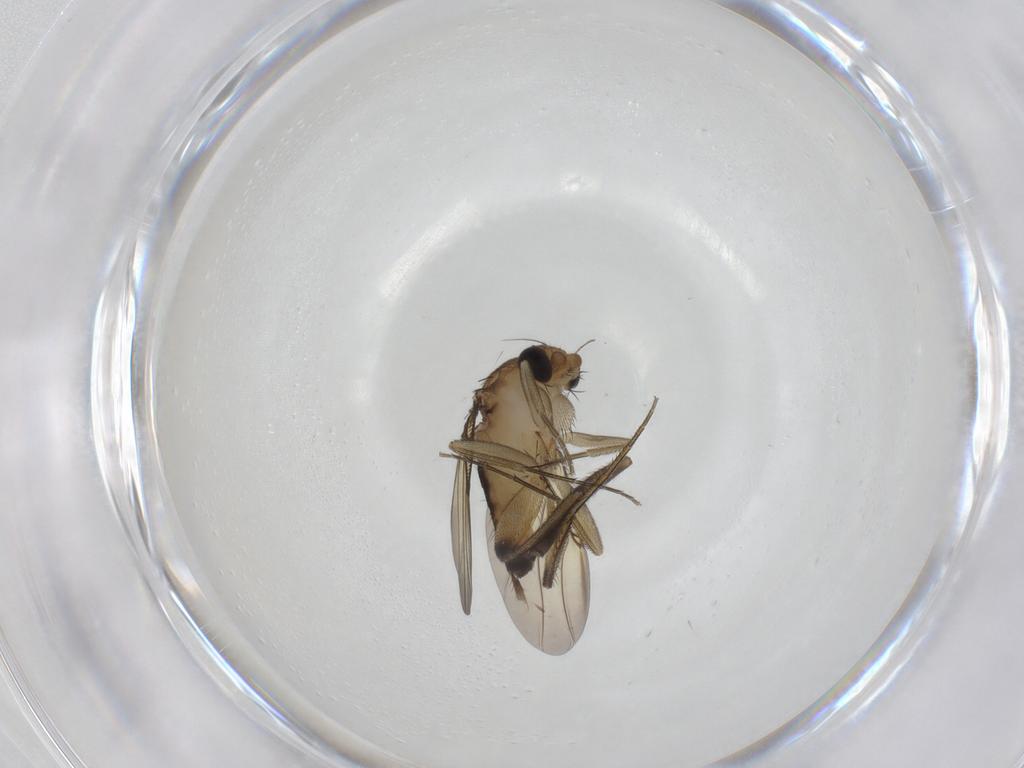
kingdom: Animalia
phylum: Arthropoda
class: Insecta
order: Diptera
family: Phoridae
